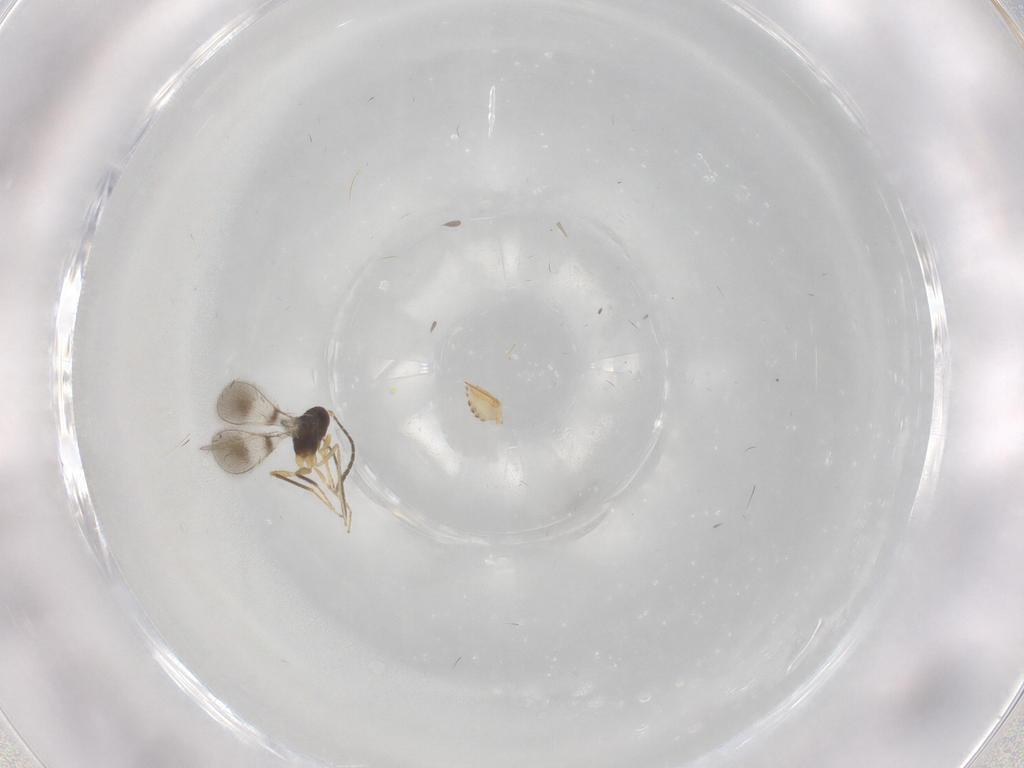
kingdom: Animalia
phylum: Arthropoda
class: Insecta
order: Hymenoptera
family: Mymaridae
